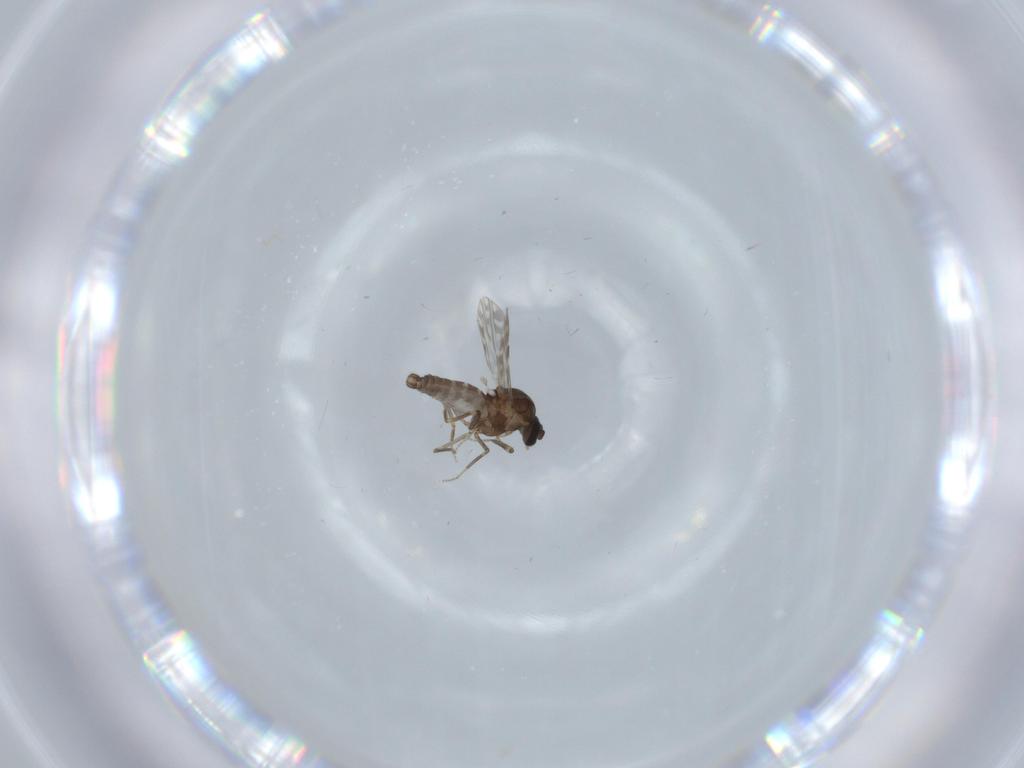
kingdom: Animalia
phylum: Arthropoda
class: Insecta
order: Diptera
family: Ceratopogonidae
